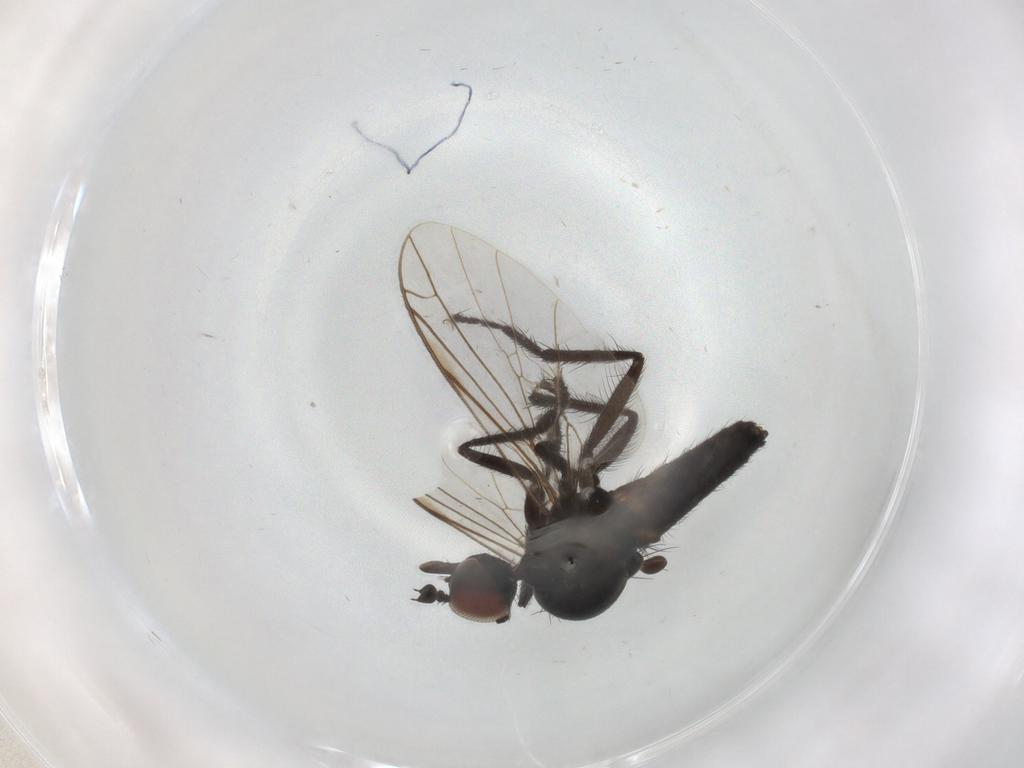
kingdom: Animalia
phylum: Arthropoda
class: Insecta
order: Diptera
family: Empididae
